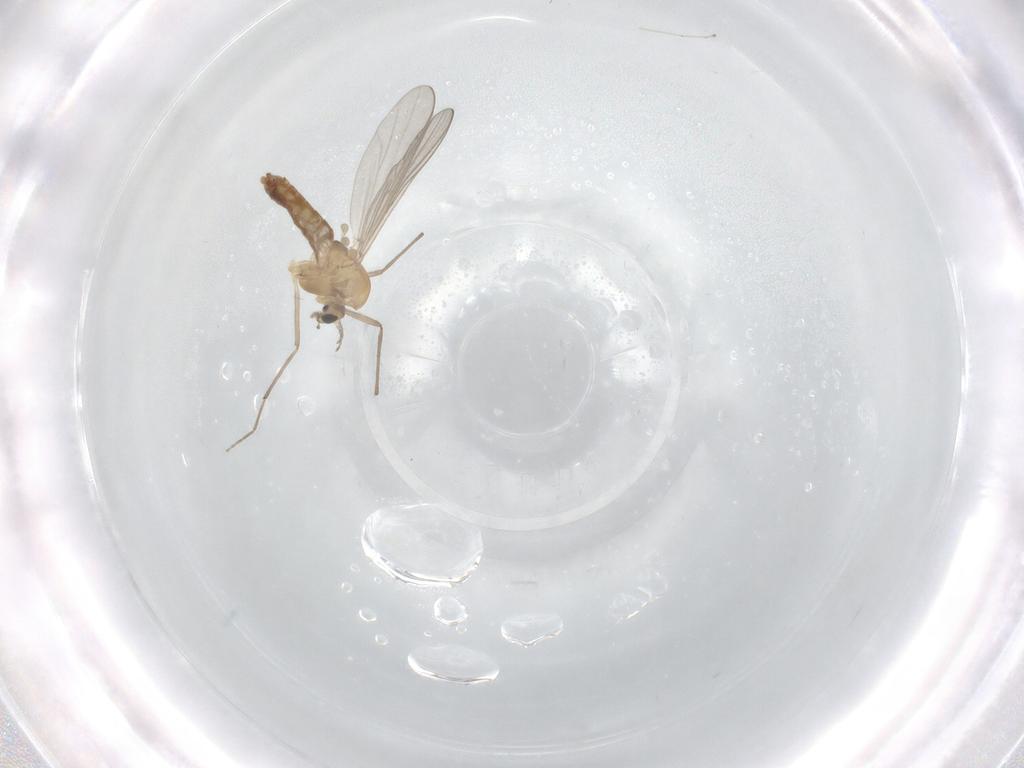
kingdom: Animalia
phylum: Arthropoda
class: Insecta
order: Diptera
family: Chironomidae
